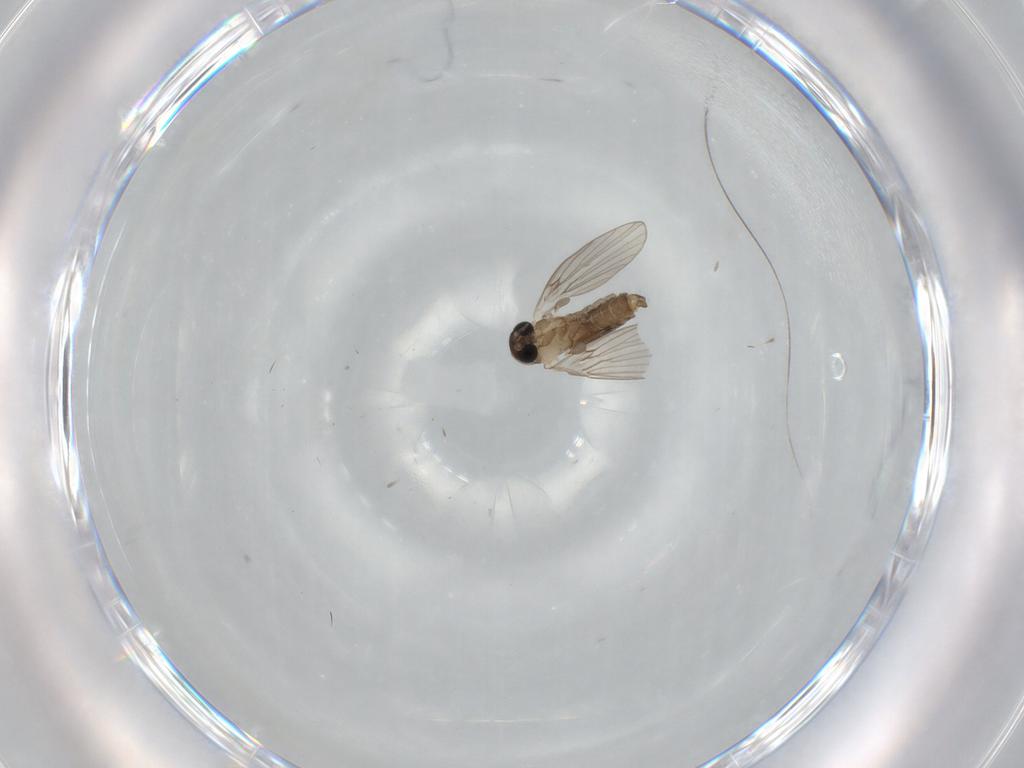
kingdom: Animalia
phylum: Arthropoda
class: Insecta
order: Diptera
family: Psychodidae
